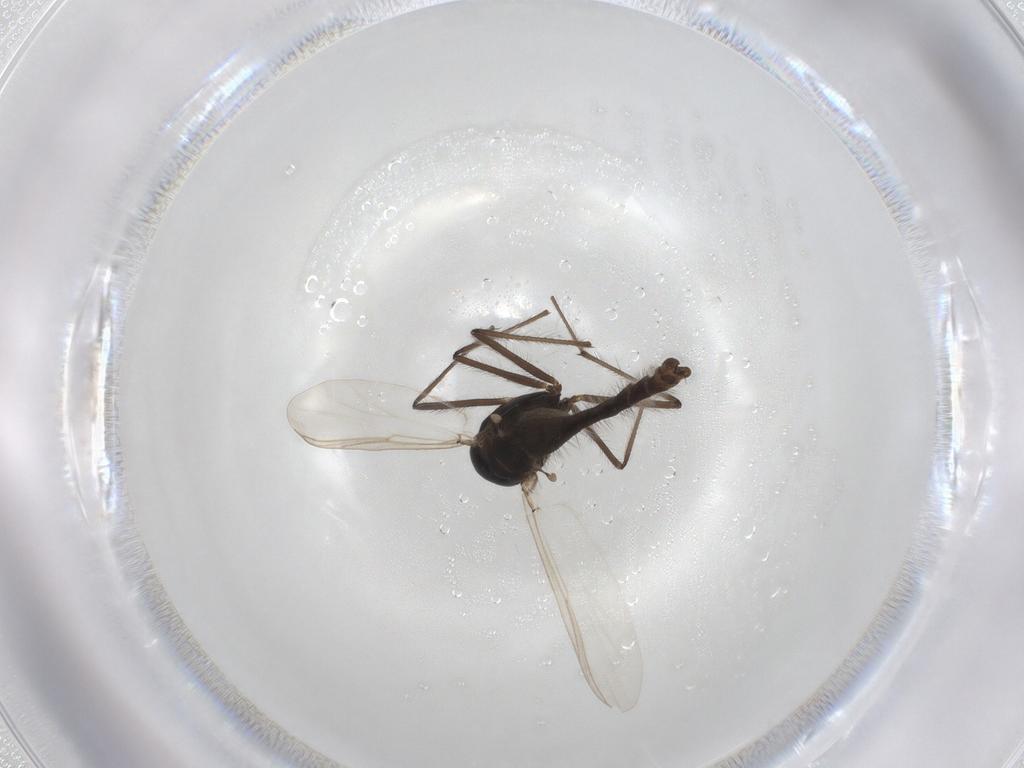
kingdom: Animalia
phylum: Arthropoda
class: Insecta
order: Diptera
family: Chironomidae
